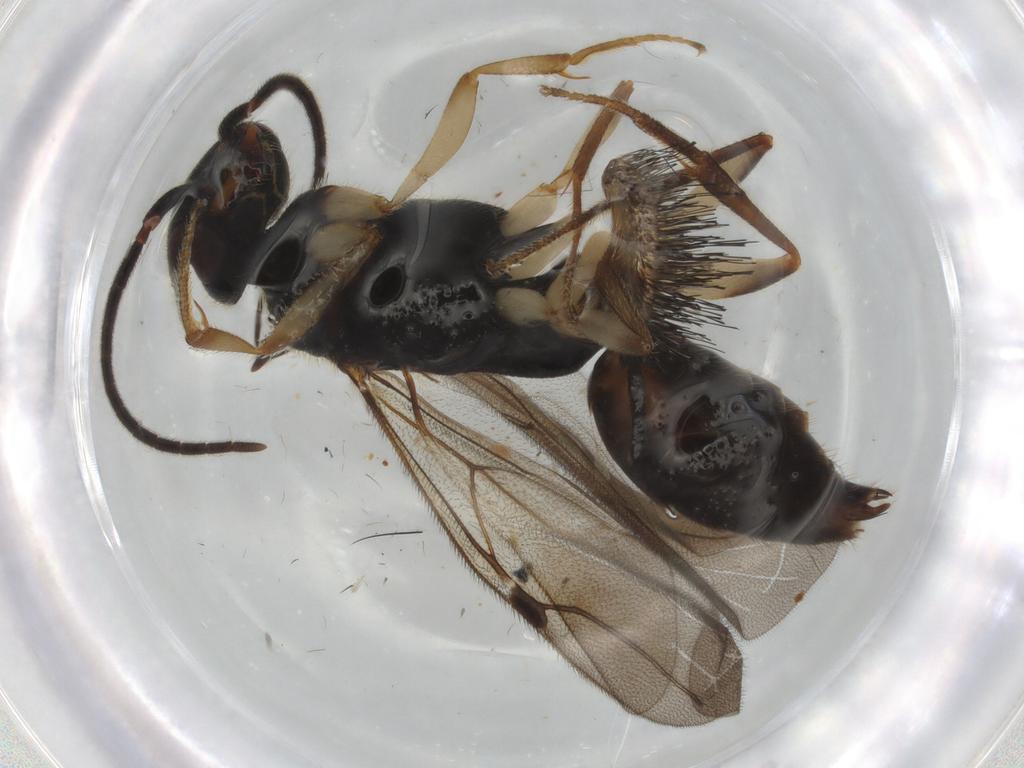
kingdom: Animalia
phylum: Arthropoda
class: Insecta
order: Hymenoptera
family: Bethylidae
